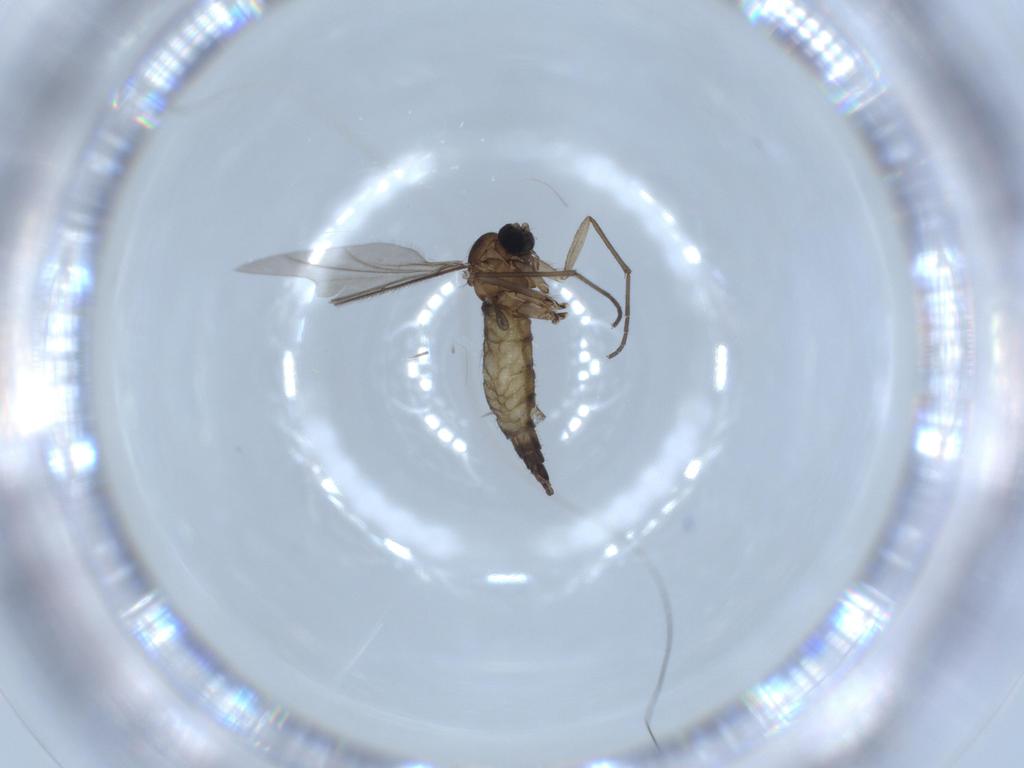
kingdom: Animalia
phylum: Arthropoda
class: Insecta
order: Diptera
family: Sciaridae
